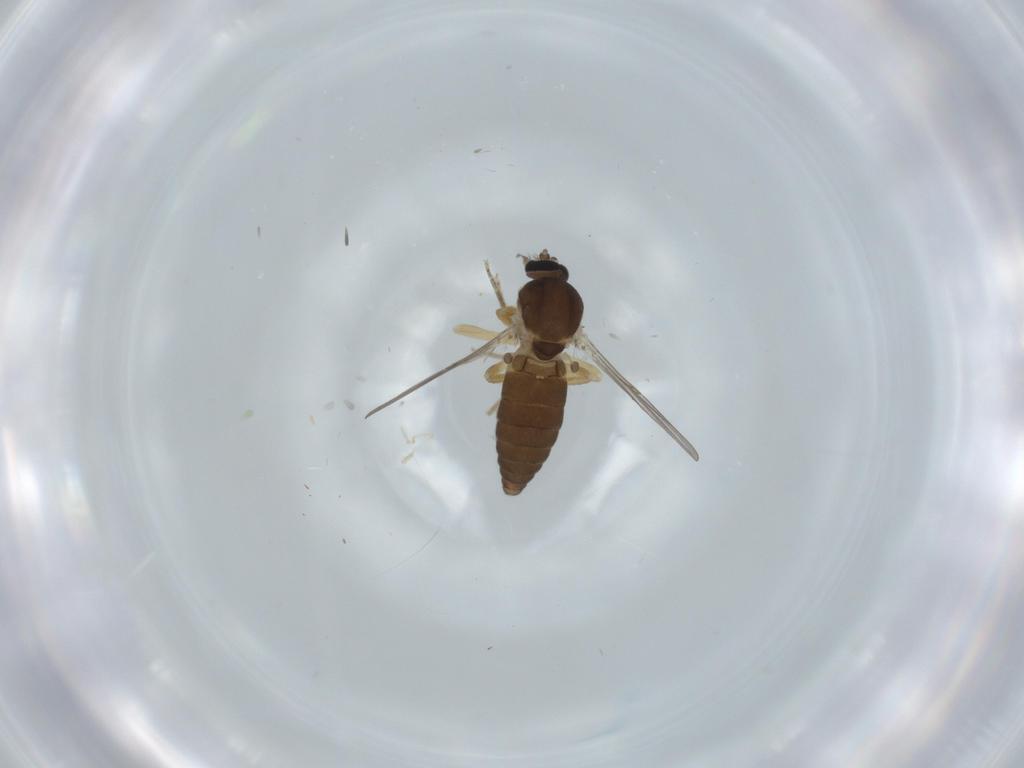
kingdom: Animalia
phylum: Arthropoda
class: Insecta
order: Diptera
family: Ceratopogonidae
